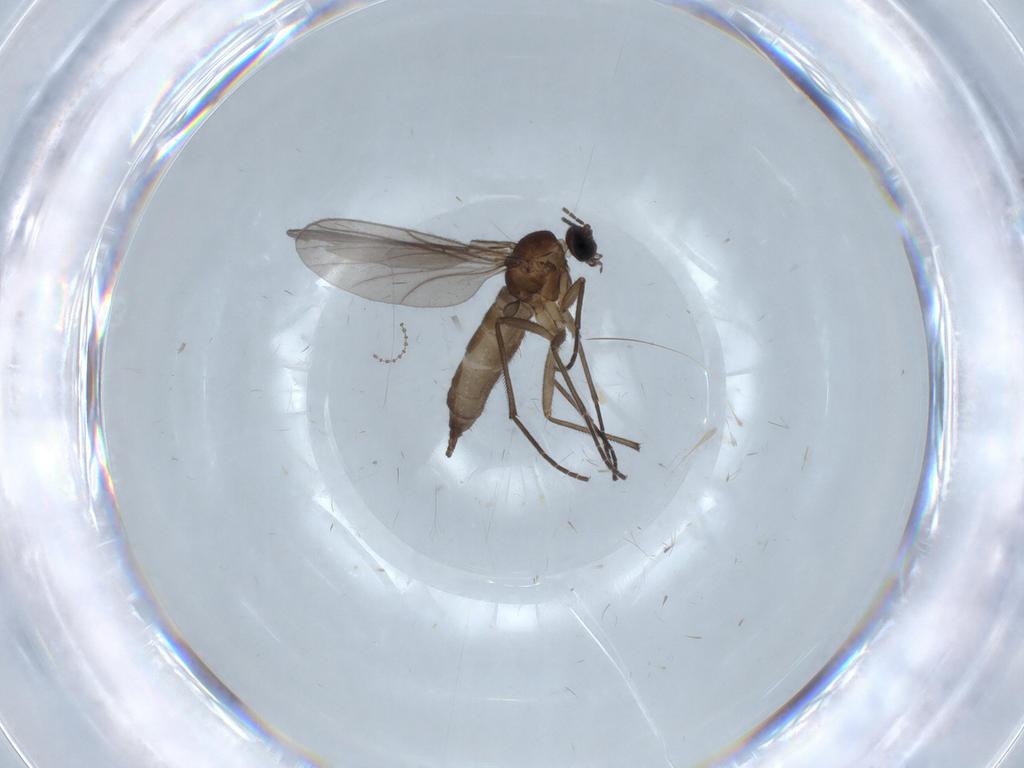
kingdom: Animalia
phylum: Arthropoda
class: Insecta
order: Diptera
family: Sciaridae
